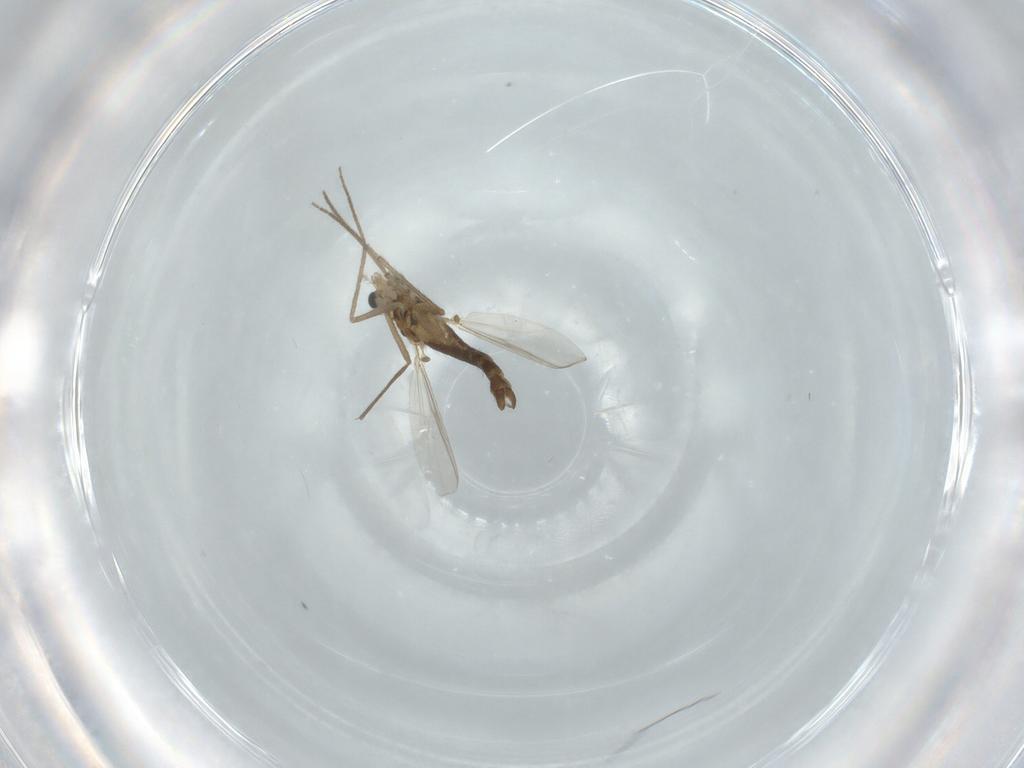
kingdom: Animalia
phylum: Arthropoda
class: Insecta
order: Diptera
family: Chironomidae
